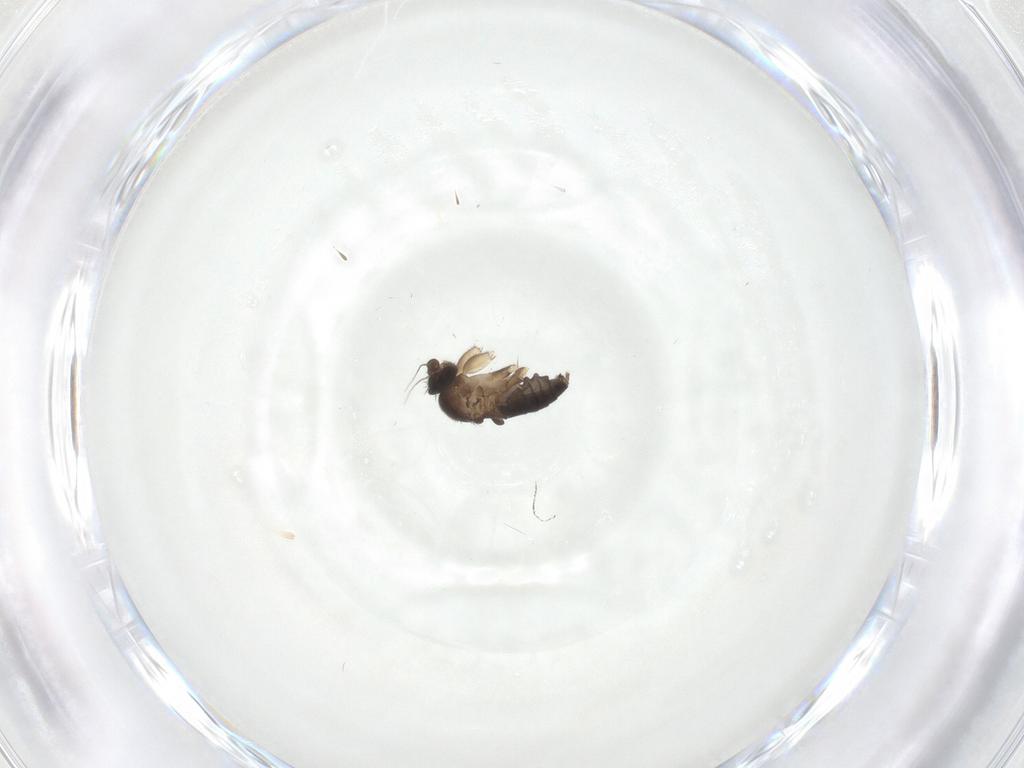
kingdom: Animalia
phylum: Arthropoda
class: Insecta
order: Diptera
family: Phoridae
